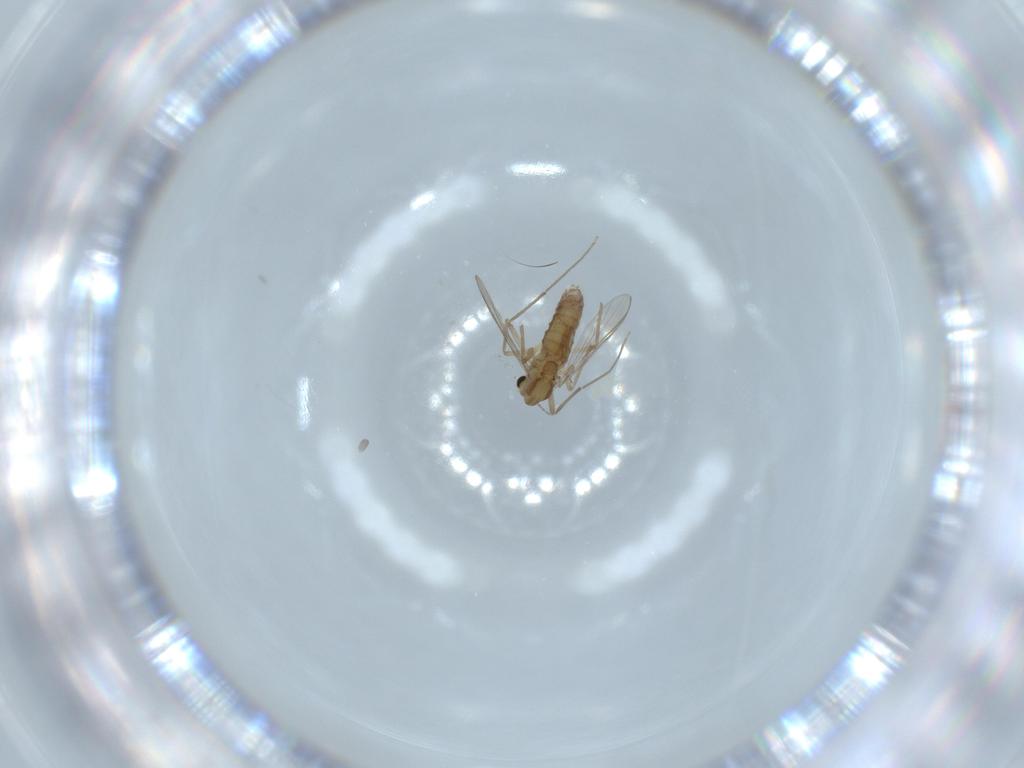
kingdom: Animalia
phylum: Arthropoda
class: Insecta
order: Diptera
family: Chironomidae
